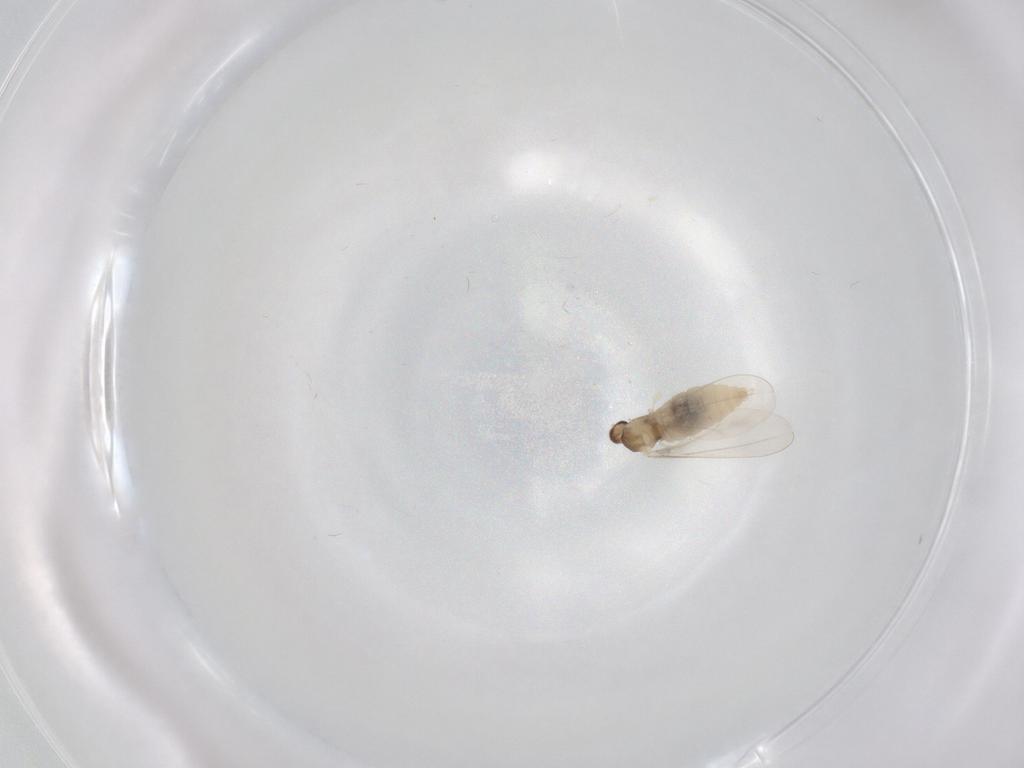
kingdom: Animalia
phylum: Arthropoda
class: Insecta
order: Diptera
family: Cecidomyiidae
